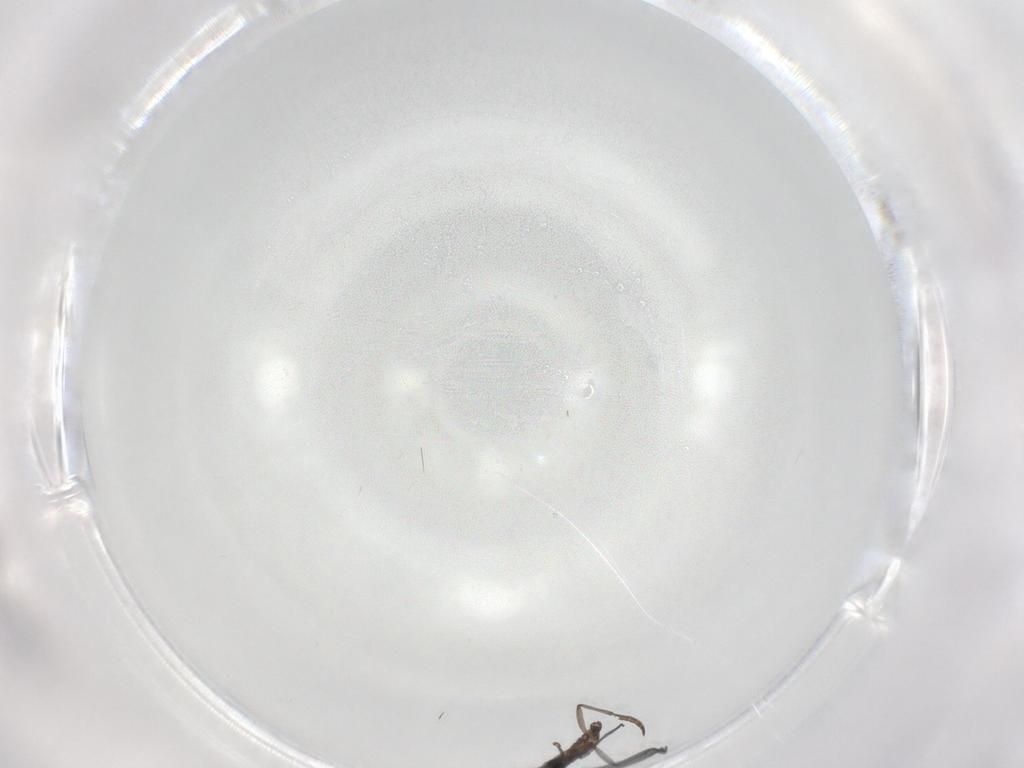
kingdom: Animalia
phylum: Arthropoda
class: Insecta
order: Diptera
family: Sciaridae
